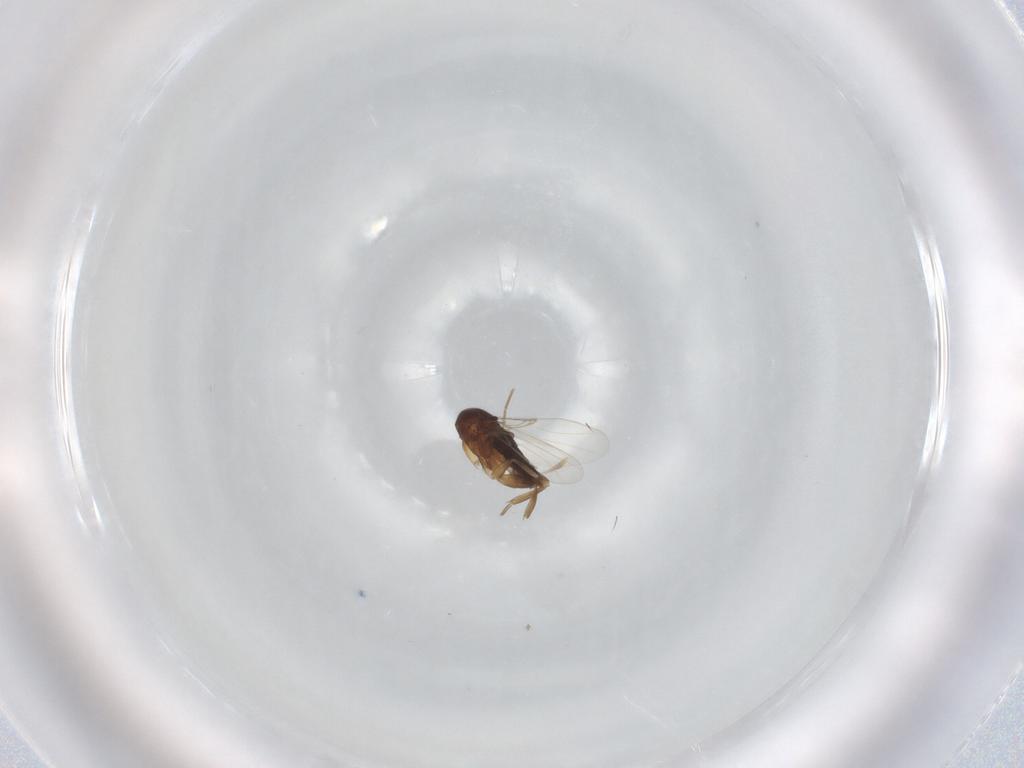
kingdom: Animalia
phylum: Arthropoda
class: Insecta
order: Diptera
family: Phoridae
